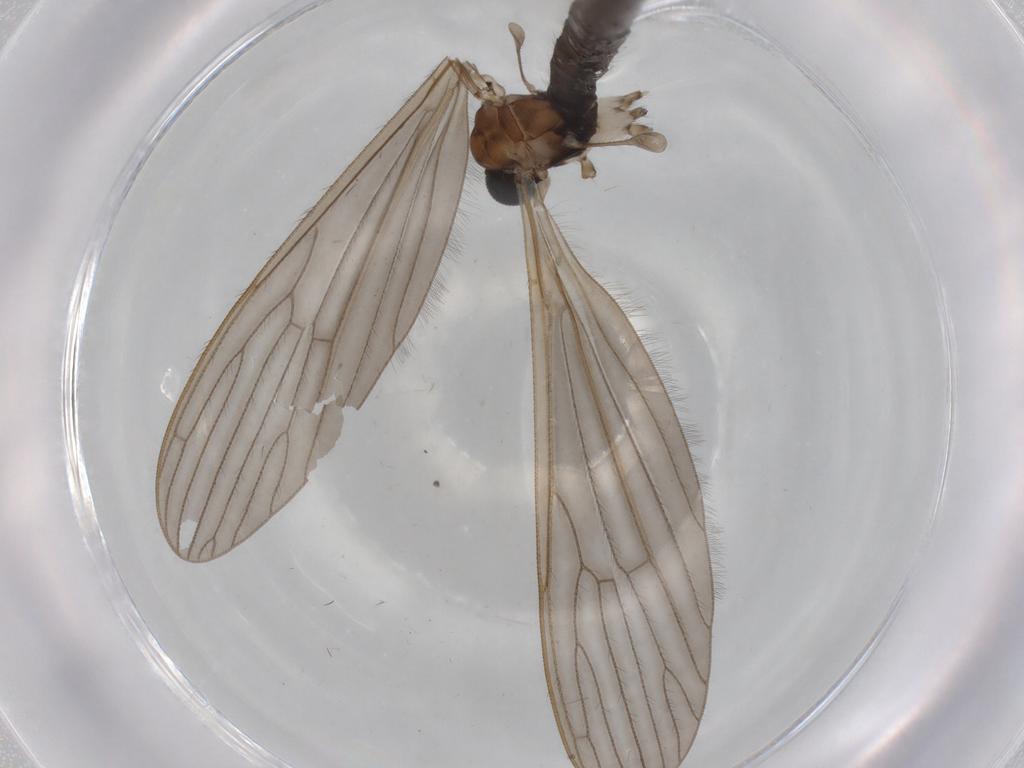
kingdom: Animalia
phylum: Arthropoda
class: Insecta
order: Diptera
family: Ceratopogonidae
